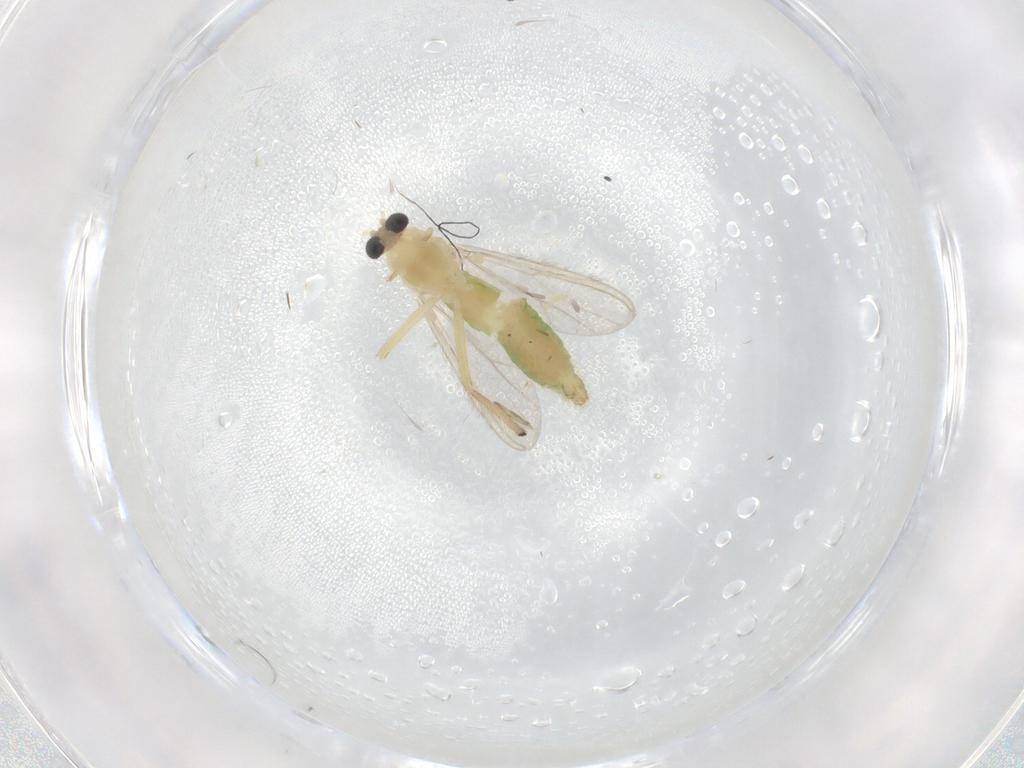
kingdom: Animalia
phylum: Arthropoda
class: Insecta
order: Diptera
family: Chironomidae
